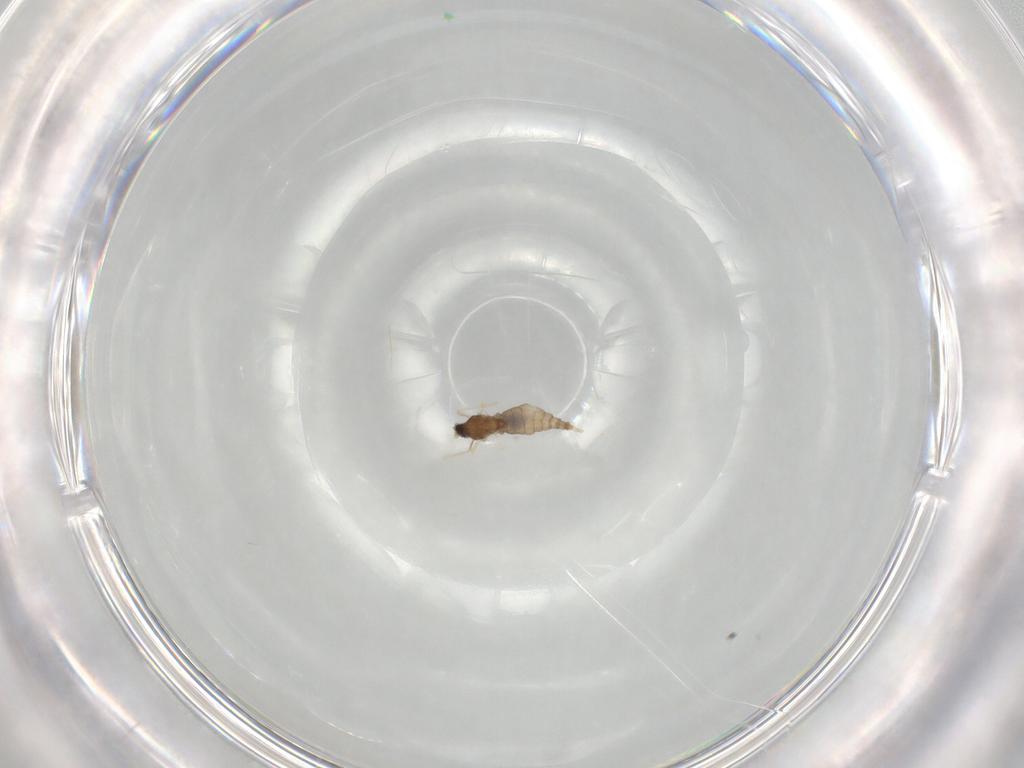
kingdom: Animalia
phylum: Arthropoda
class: Insecta
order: Diptera
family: Cecidomyiidae
